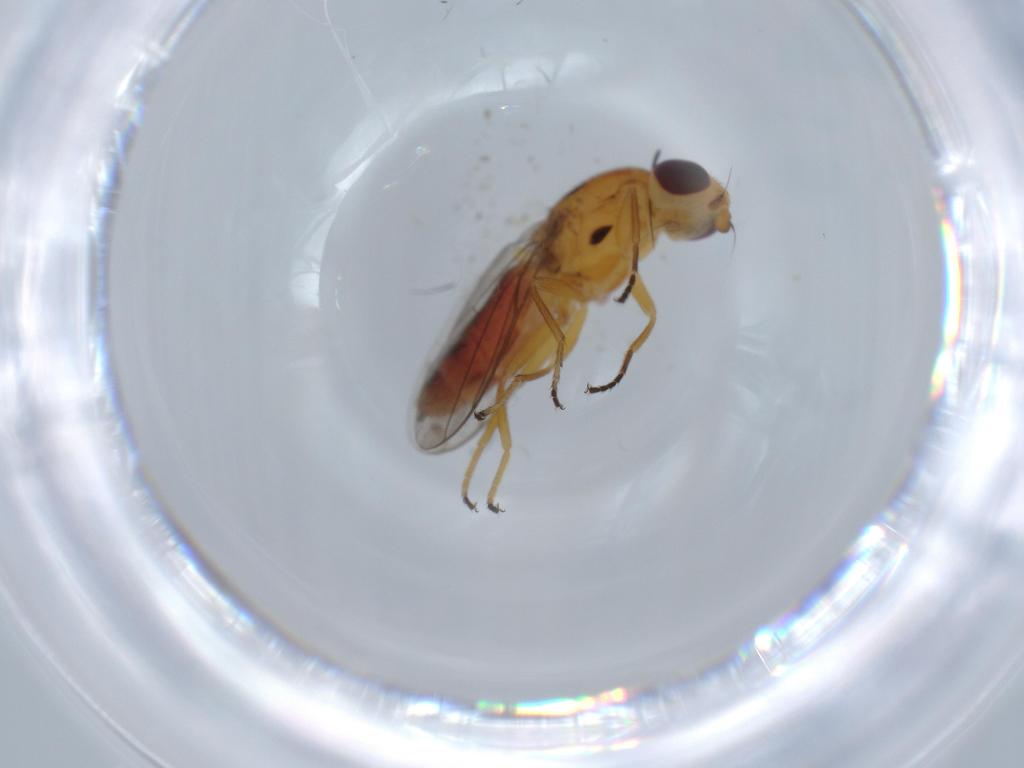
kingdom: Animalia
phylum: Arthropoda
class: Insecta
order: Diptera
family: Chloropidae
